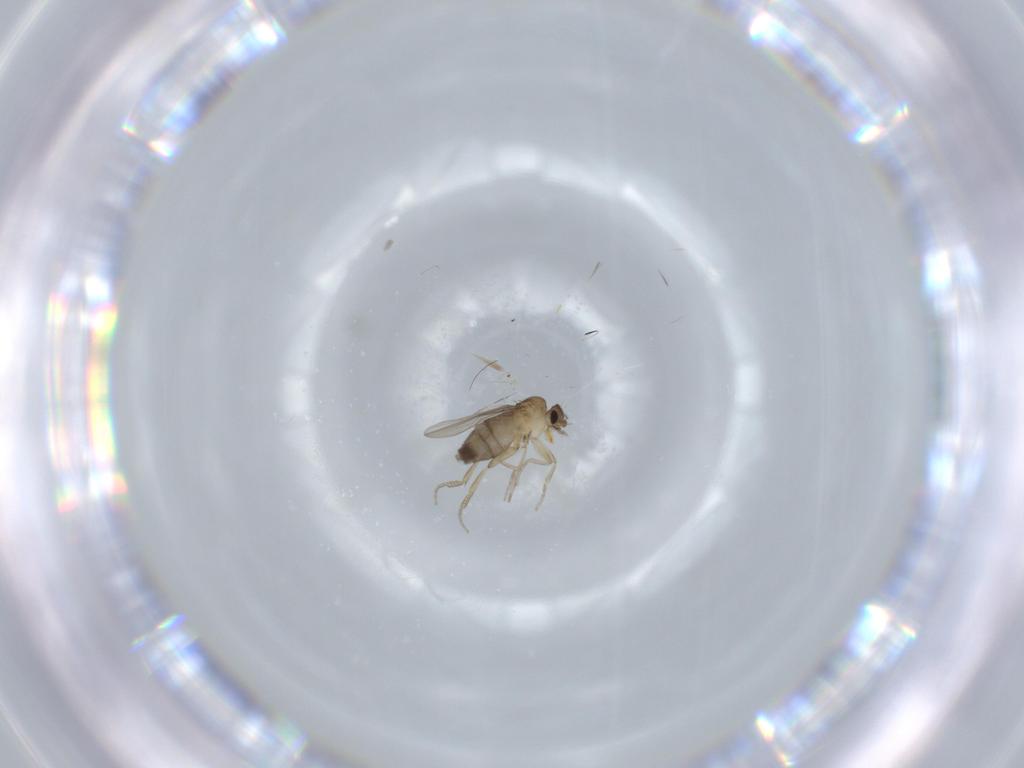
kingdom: Animalia
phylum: Arthropoda
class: Insecta
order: Diptera
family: Phoridae
